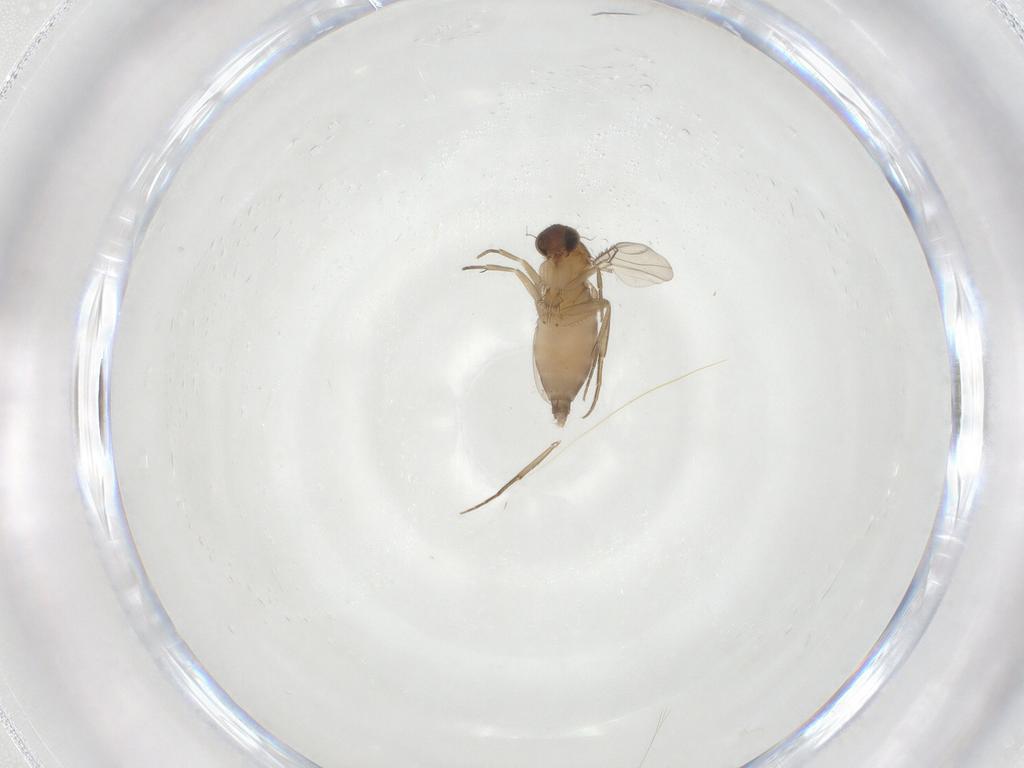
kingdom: Animalia
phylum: Arthropoda
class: Insecta
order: Diptera
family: Phoridae
